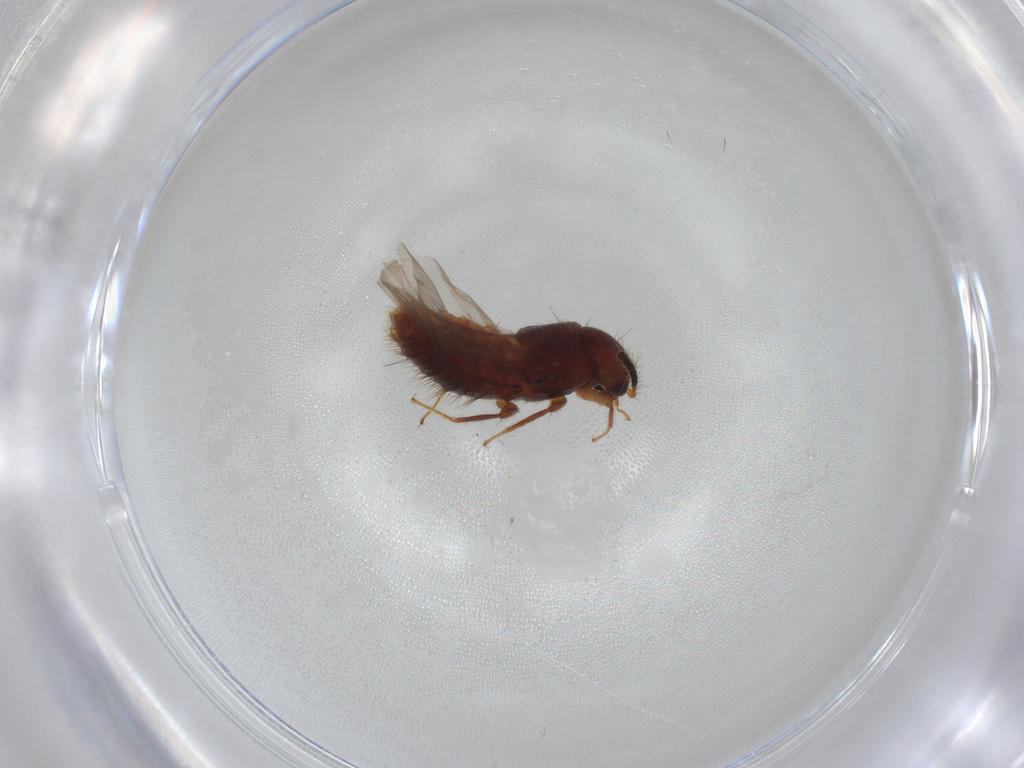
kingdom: Animalia
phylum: Arthropoda
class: Insecta
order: Coleoptera
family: Staphylinidae
